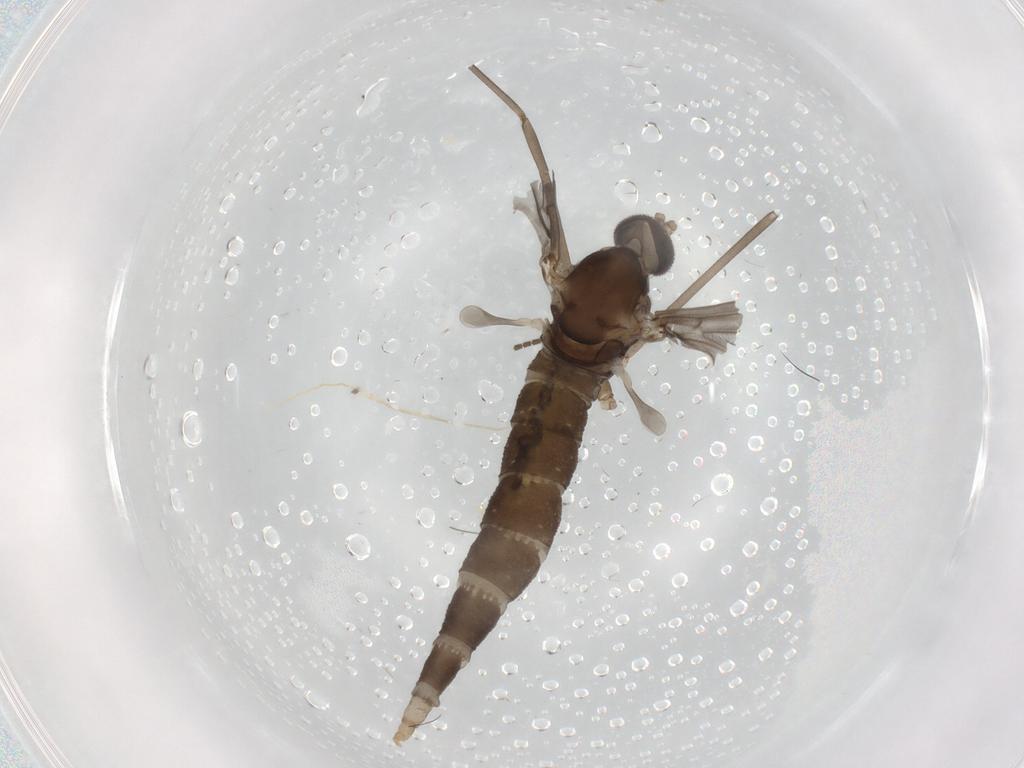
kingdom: Animalia
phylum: Arthropoda
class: Insecta
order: Diptera
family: Cecidomyiidae
